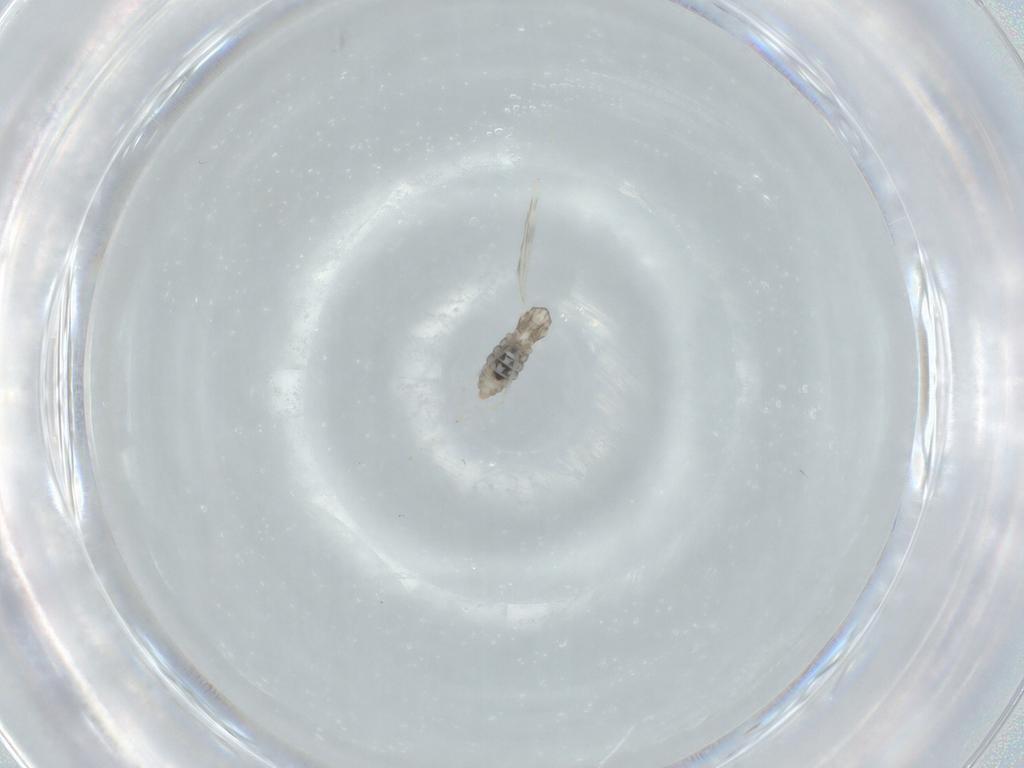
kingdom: Animalia
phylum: Arthropoda
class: Insecta
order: Diptera
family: Cecidomyiidae
